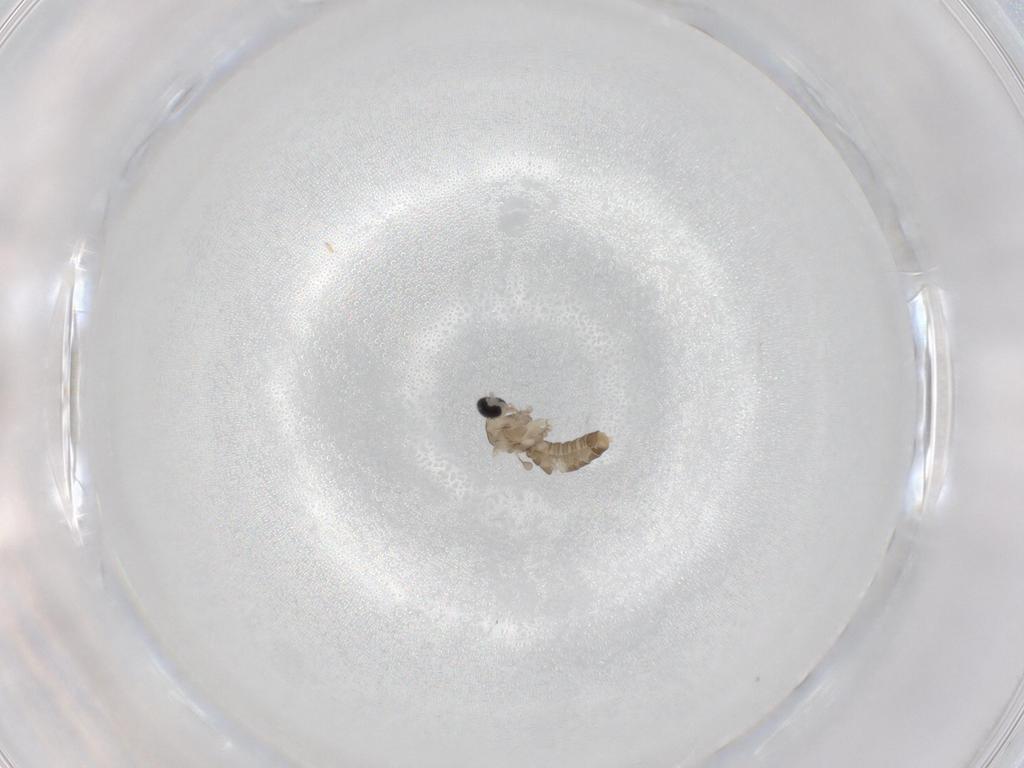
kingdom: Animalia
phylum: Arthropoda
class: Insecta
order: Diptera
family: Cecidomyiidae
